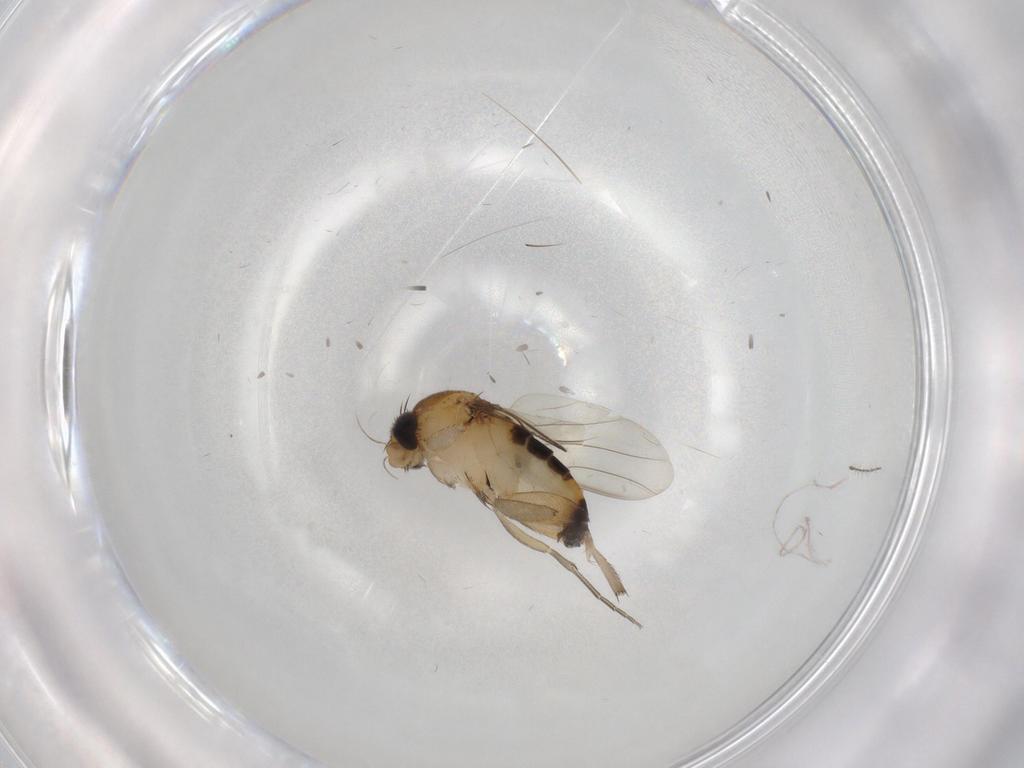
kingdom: Animalia
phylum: Arthropoda
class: Insecta
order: Diptera
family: Phoridae
